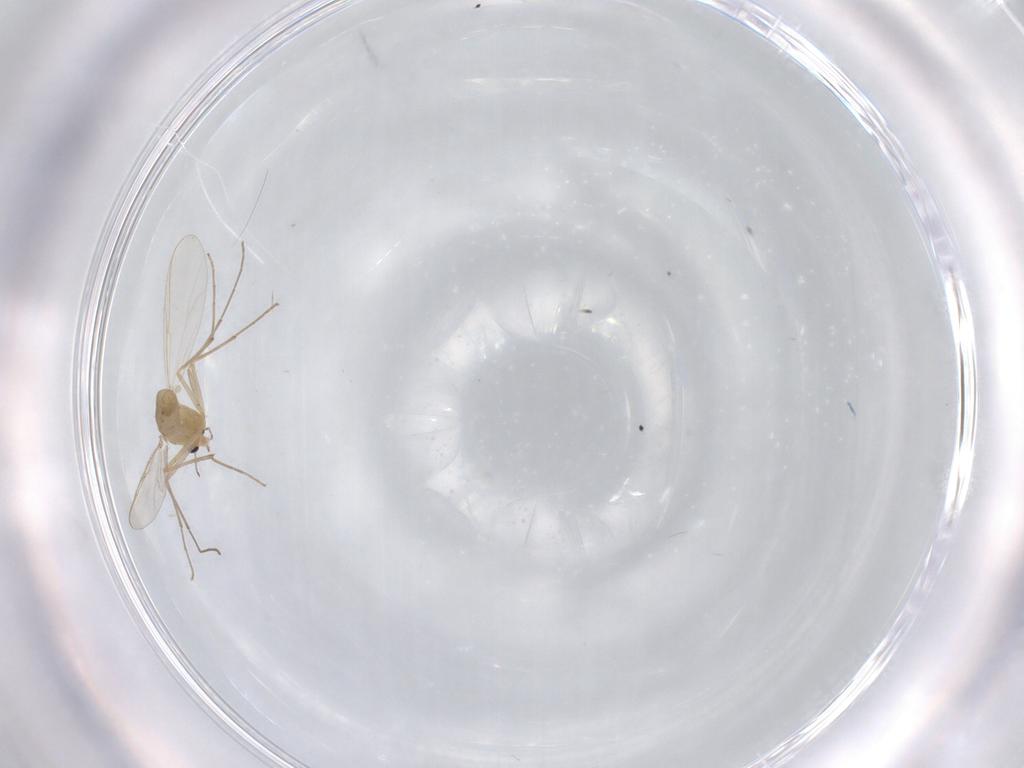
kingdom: Animalia
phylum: Arthropoda
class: Insecta
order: Diptera
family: Chironomidae
